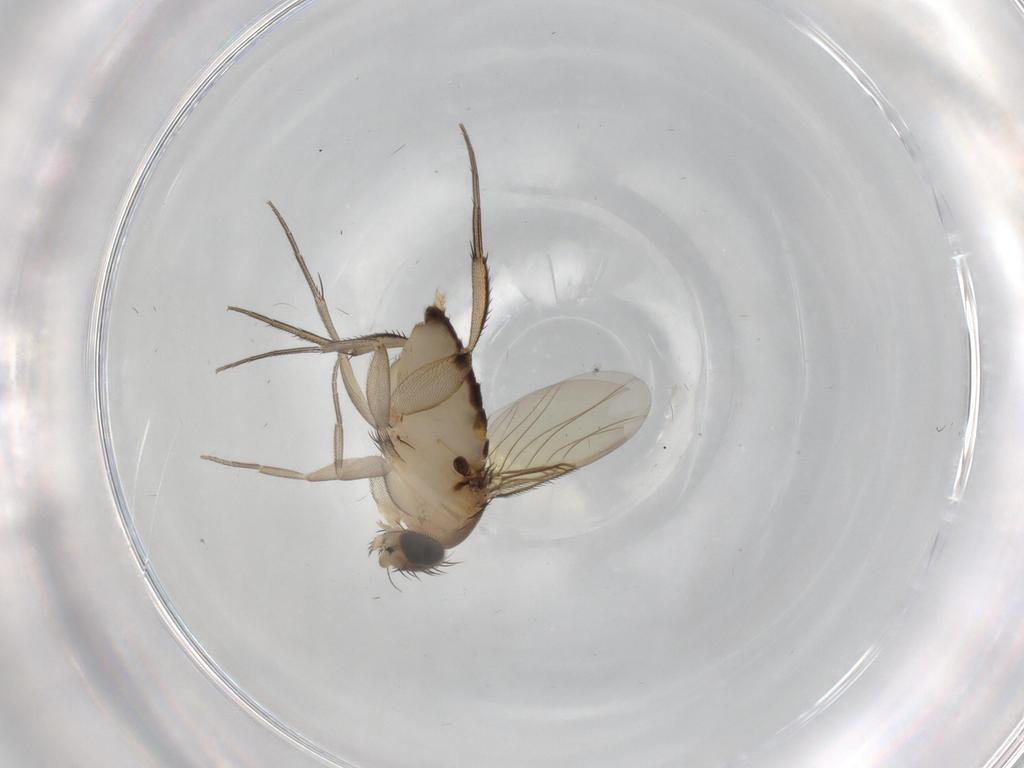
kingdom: Animalia
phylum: Arthropoda
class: Insecta
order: Diptera
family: Phoridae
